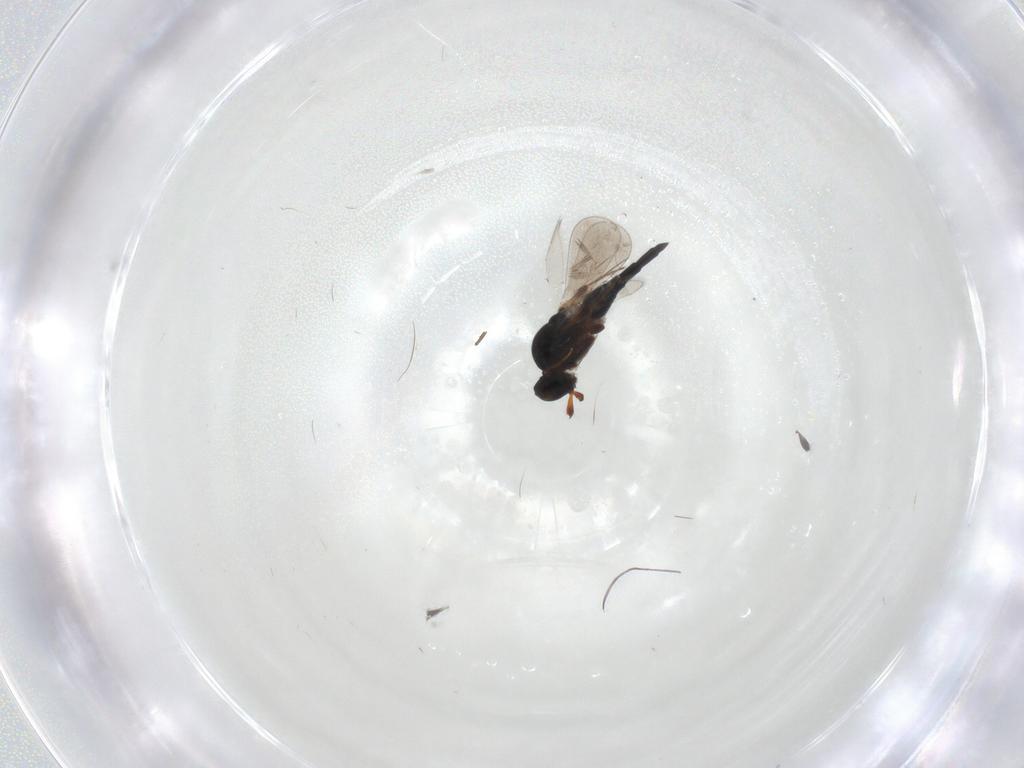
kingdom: Animalia
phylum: Arthropoda
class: Insecta
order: Hymenoptera
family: Platygastridae
